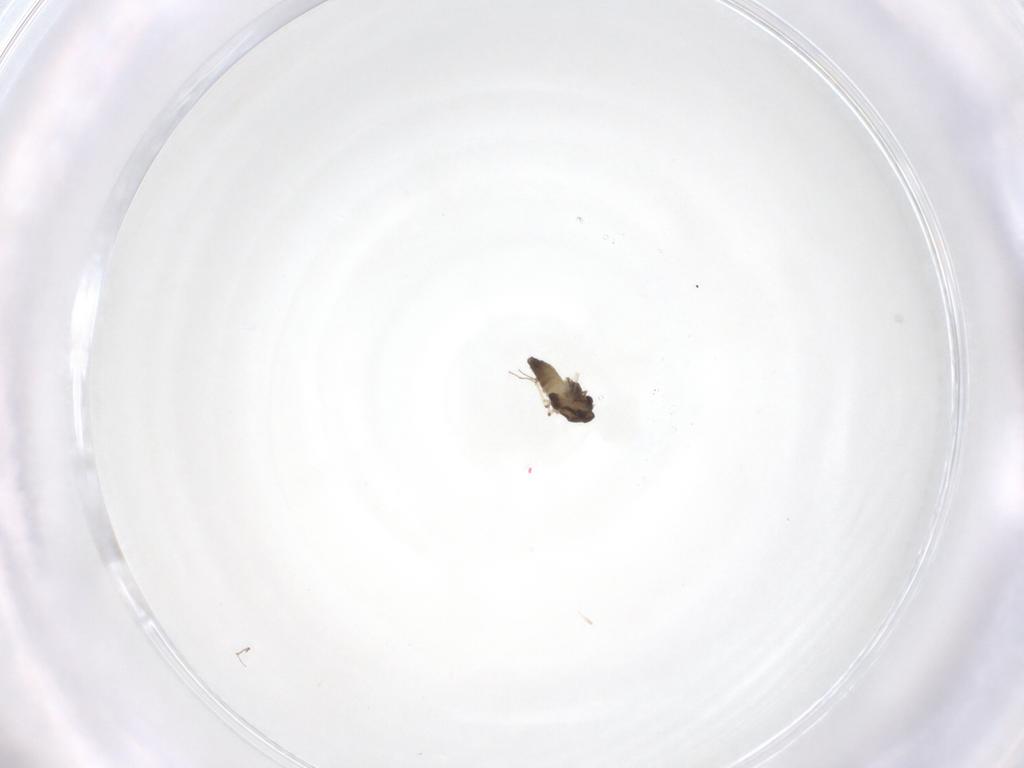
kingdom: Animalia
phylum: Arthropoda
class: Insecta
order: Diptera
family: Chironomidae
